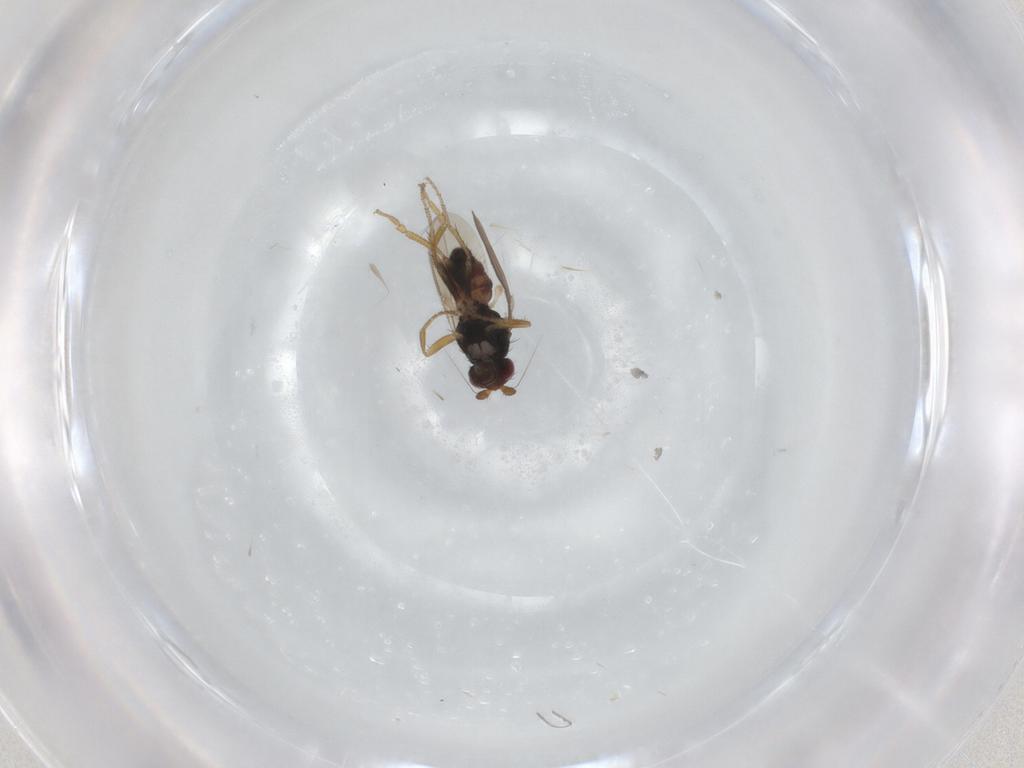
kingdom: Animalia
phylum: Arthropoda
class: Insecta
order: Diptera
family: Sphaeroceridae
